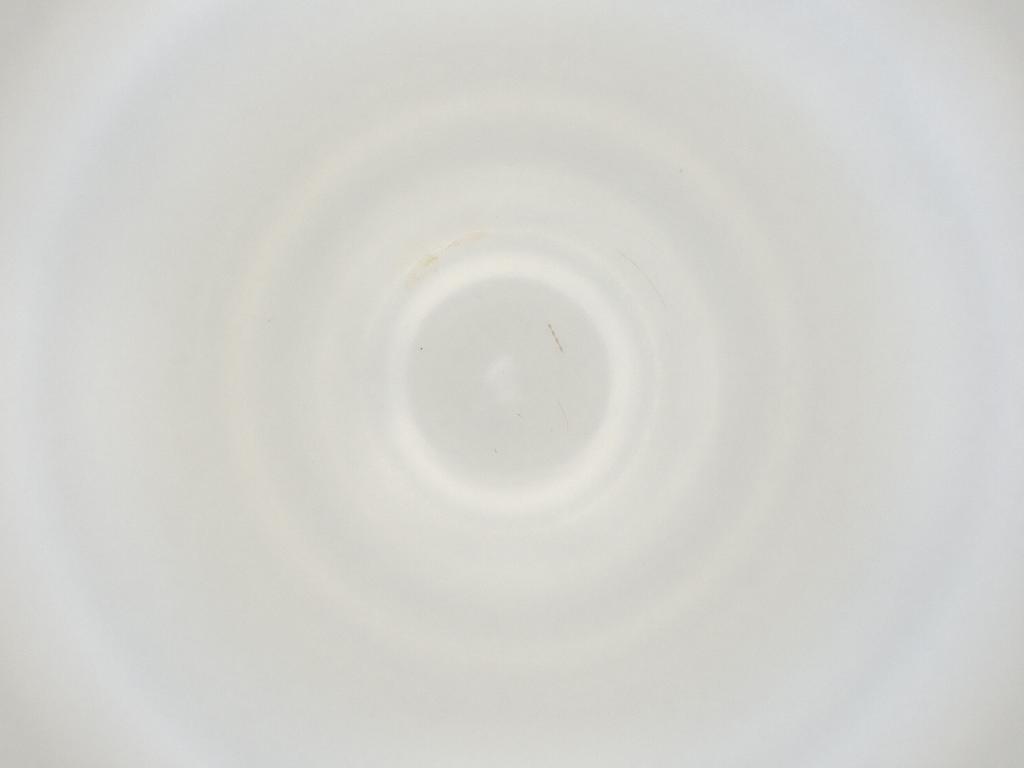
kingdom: Animalia
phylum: Arthropoda
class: Insecta
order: Diptera
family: Cecidomyiidae
